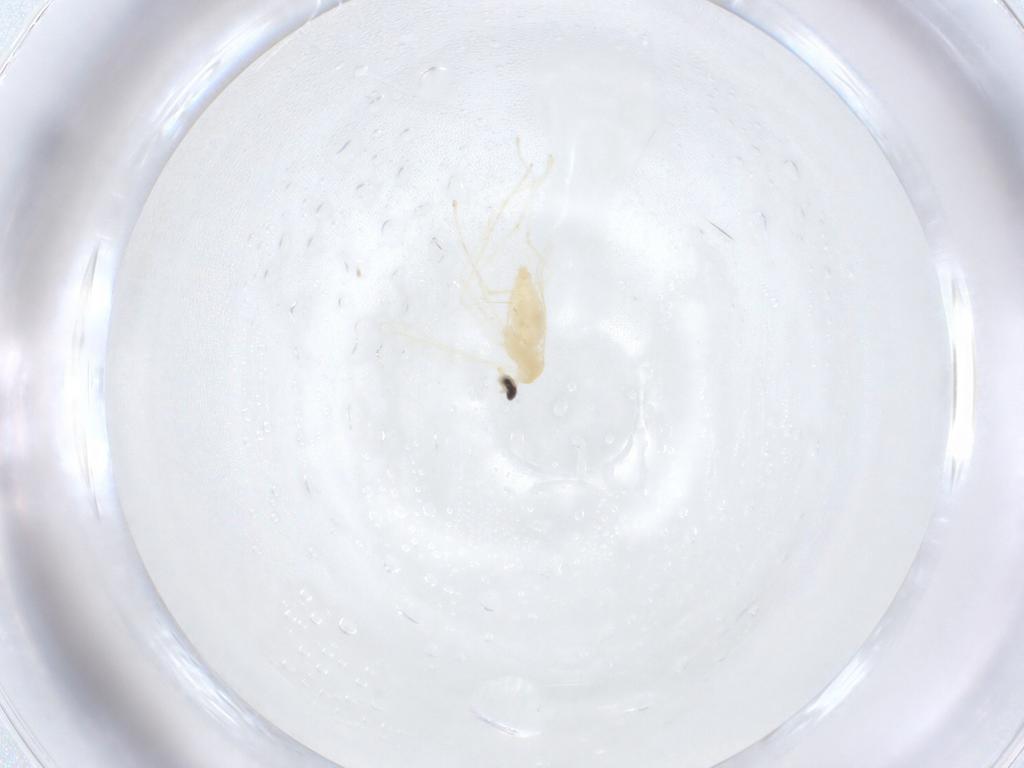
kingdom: Animalia
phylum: Arthropoda
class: Insecta
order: Diptera
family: Cecidomyiidae
